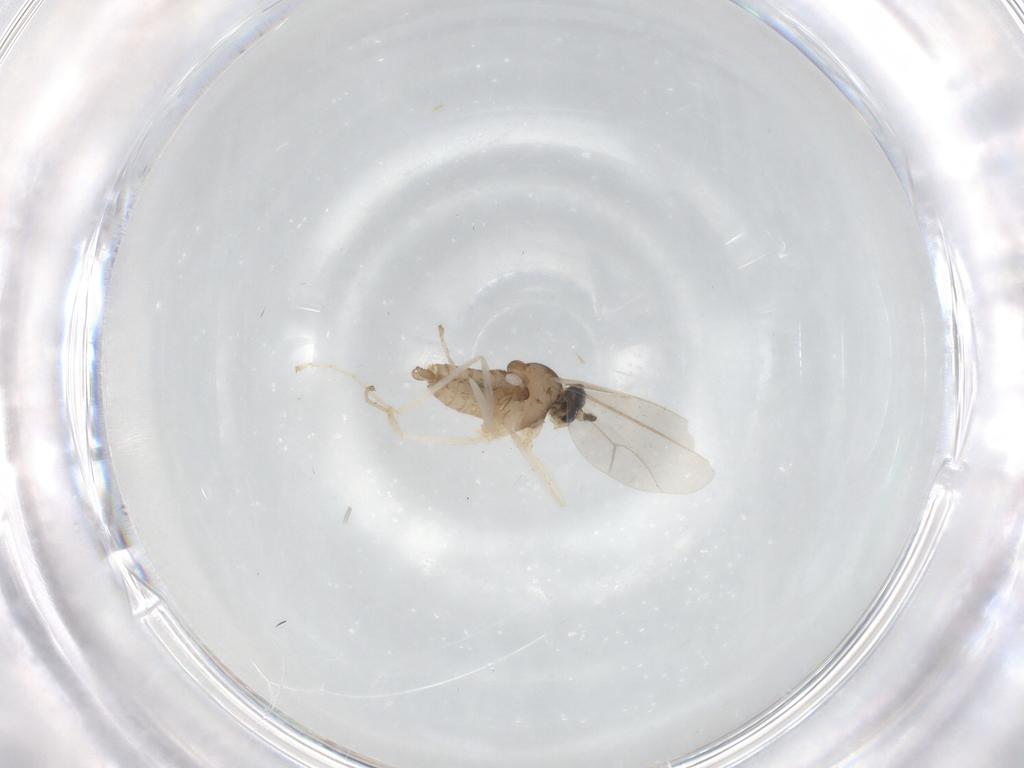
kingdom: Animalia
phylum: Arthropoda
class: Insecta
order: Diptera
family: Cecidomyiidae
